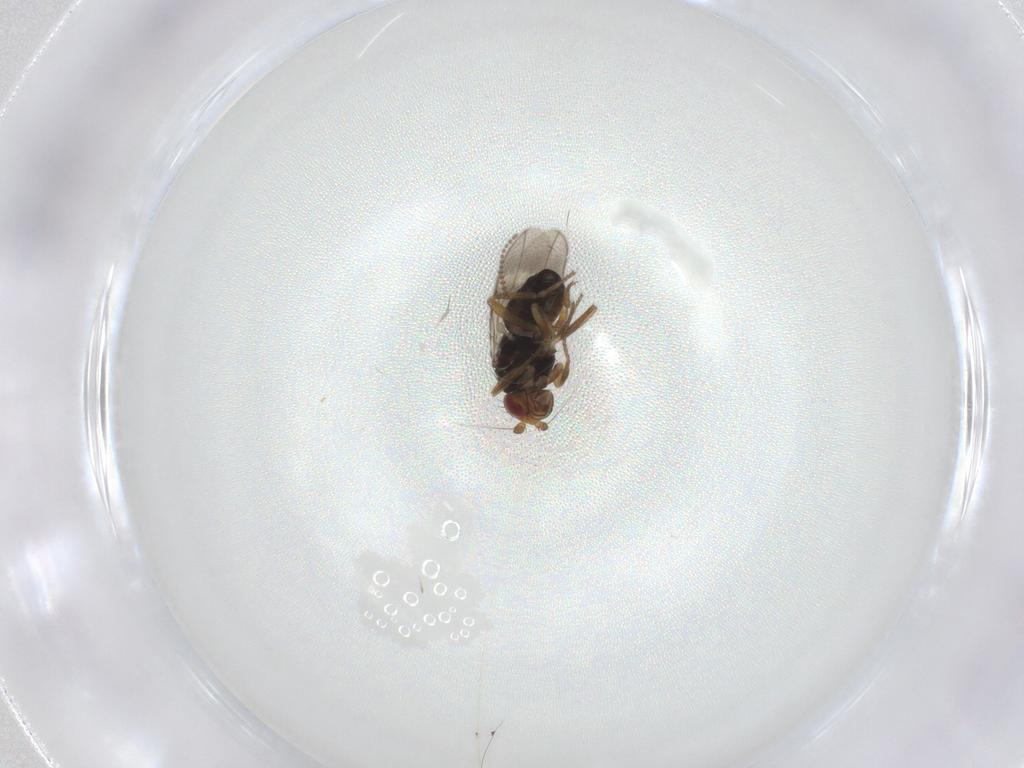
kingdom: Animalia
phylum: Arthropoda
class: Insecta
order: Diptera
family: Sphaeroceridae
